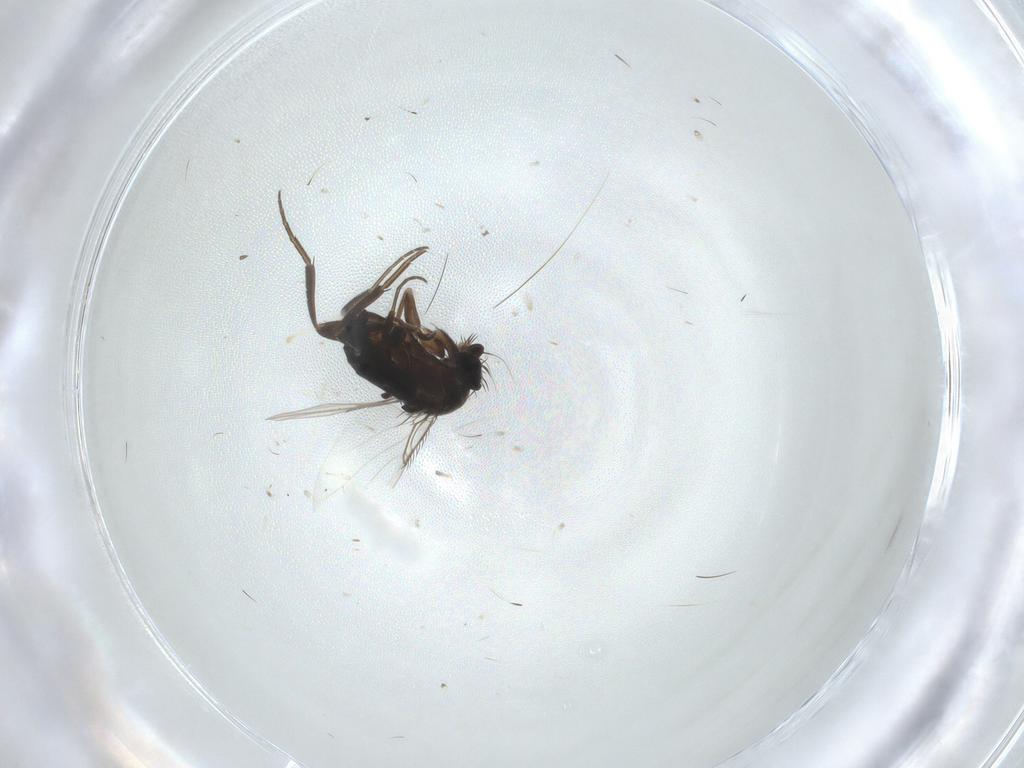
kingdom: Animalia
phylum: Arthropoda
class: Insecta
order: Diptera
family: Phoridae
